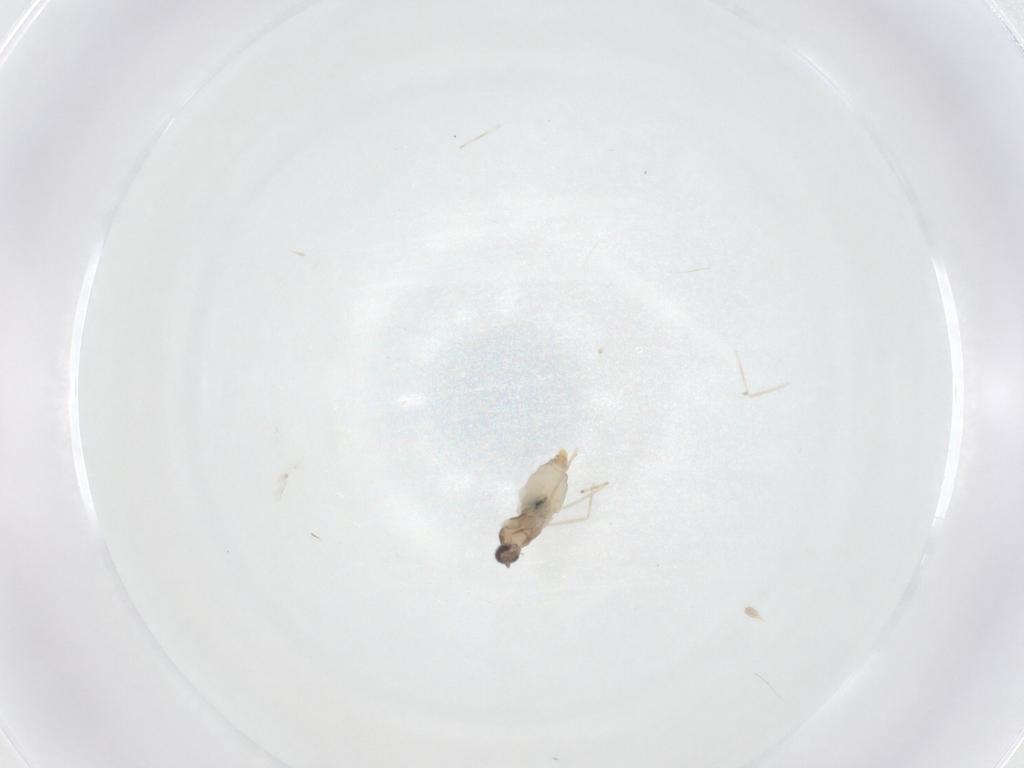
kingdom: Animalia
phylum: Arthropoda
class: Insecta
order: Diptera
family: Cecidomyiidae
